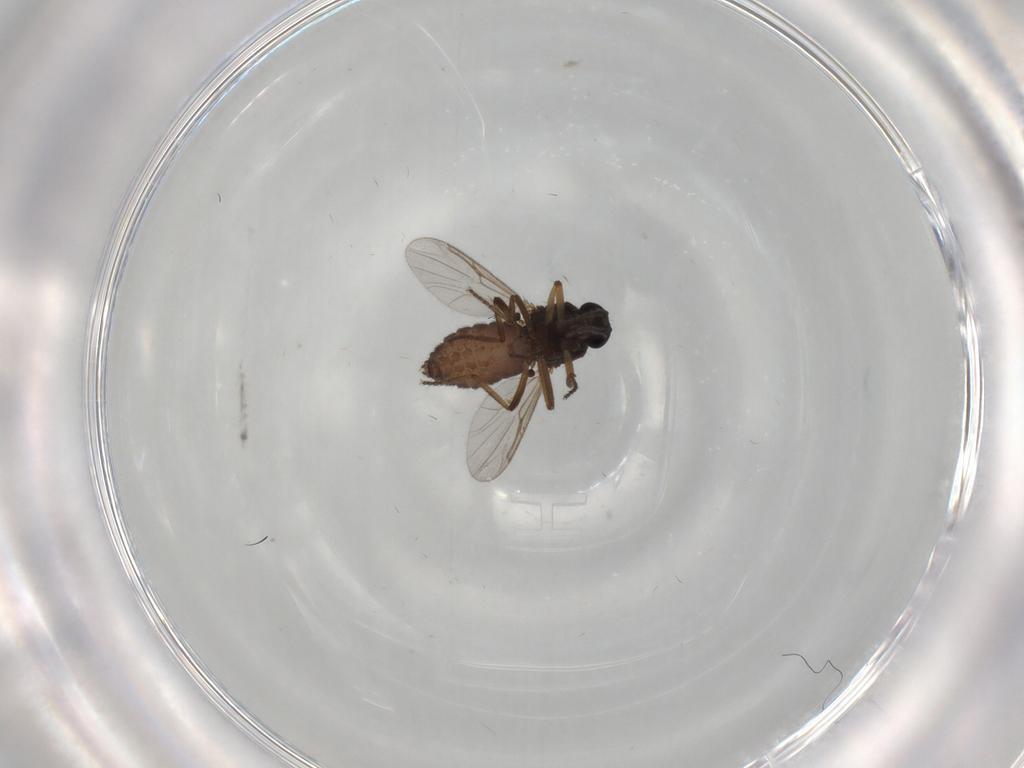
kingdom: Animalia
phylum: Arthropoda
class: Insecta
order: Diptera
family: Ceratopogonidae
